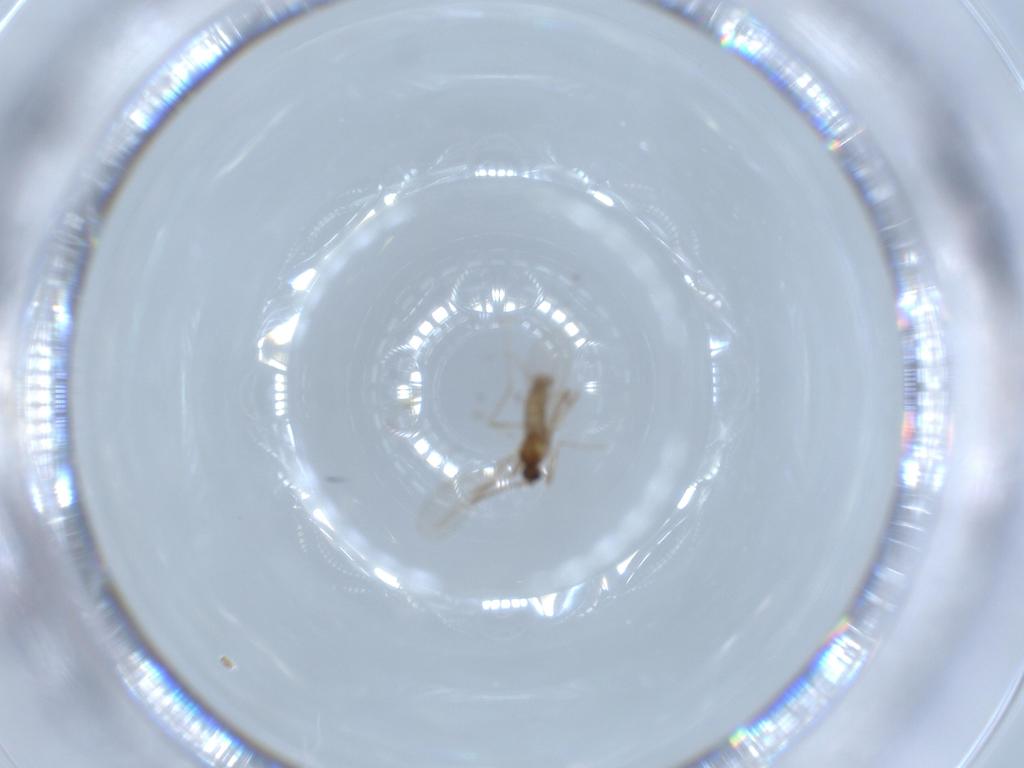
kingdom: Animalia
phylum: Arthropoda
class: Insecta
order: Diptera
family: Cecidomyiidae
